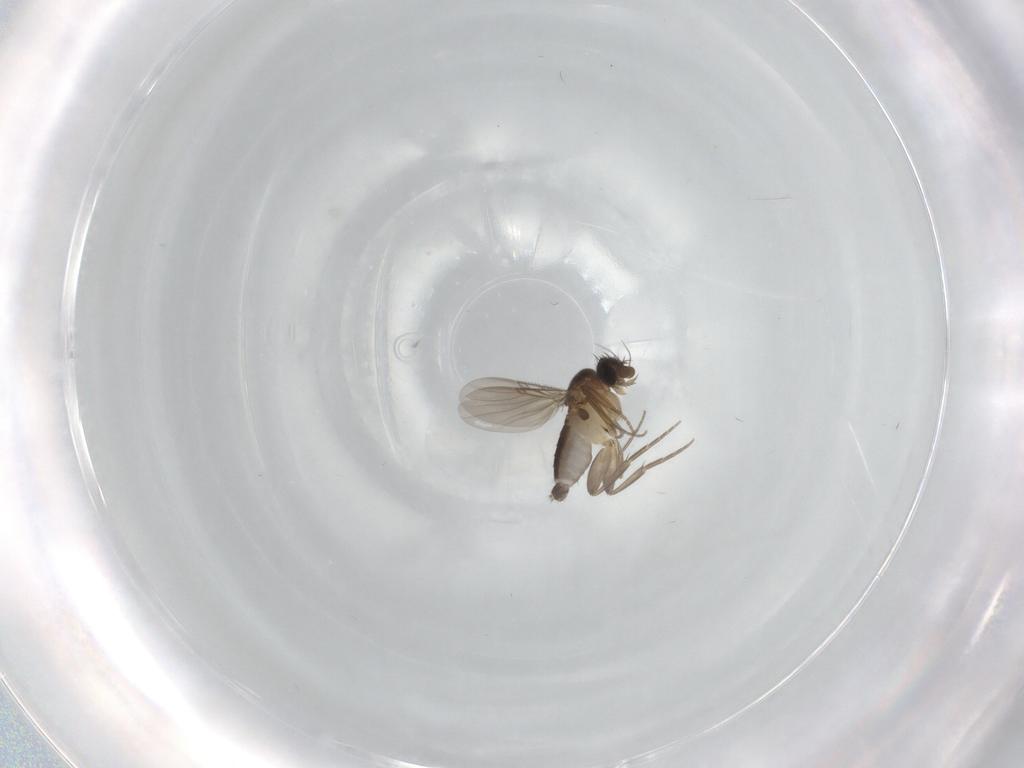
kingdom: Animalia
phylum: Arthropoda
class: Insecta
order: Diptera
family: Phoridae
